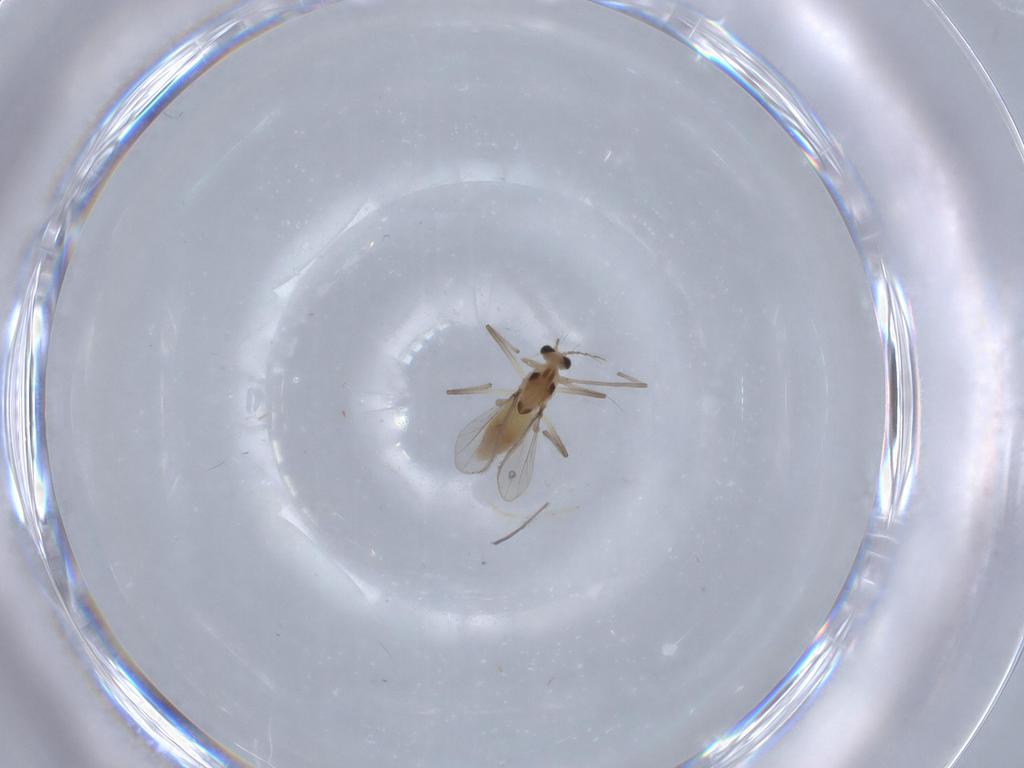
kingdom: Animalia
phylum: Arthropoda
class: Insecta
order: Diptera
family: Chironomidae
